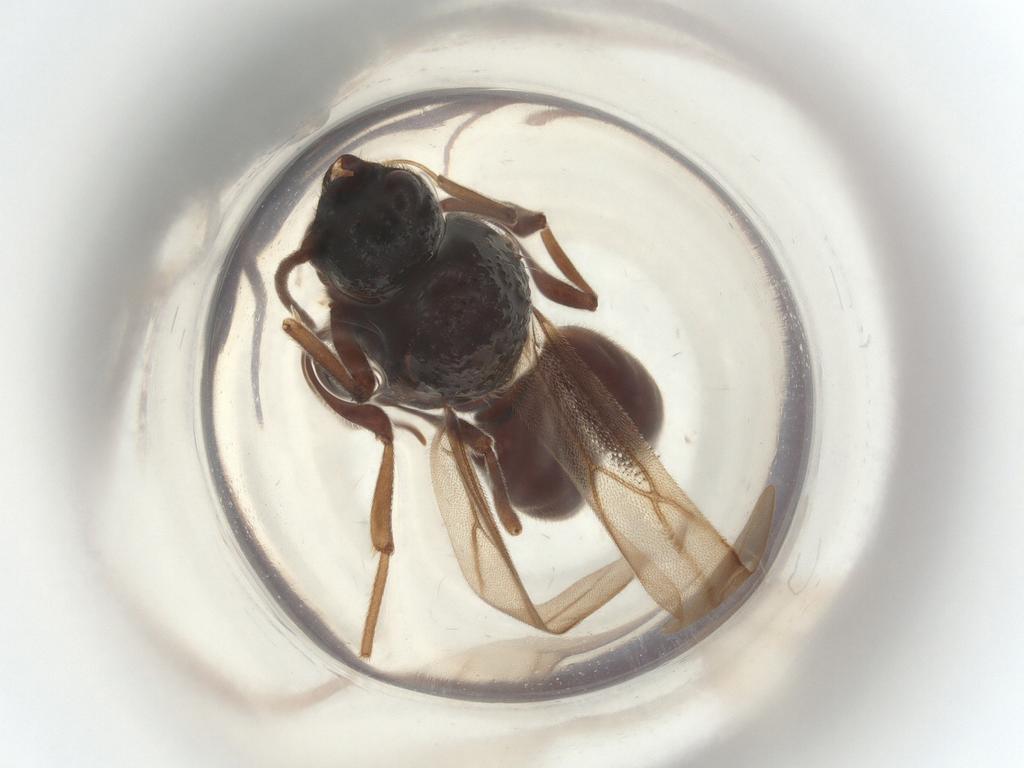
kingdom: Animalia
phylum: Arthropoda
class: Insecta
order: Hymenoptera
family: Formicidae
